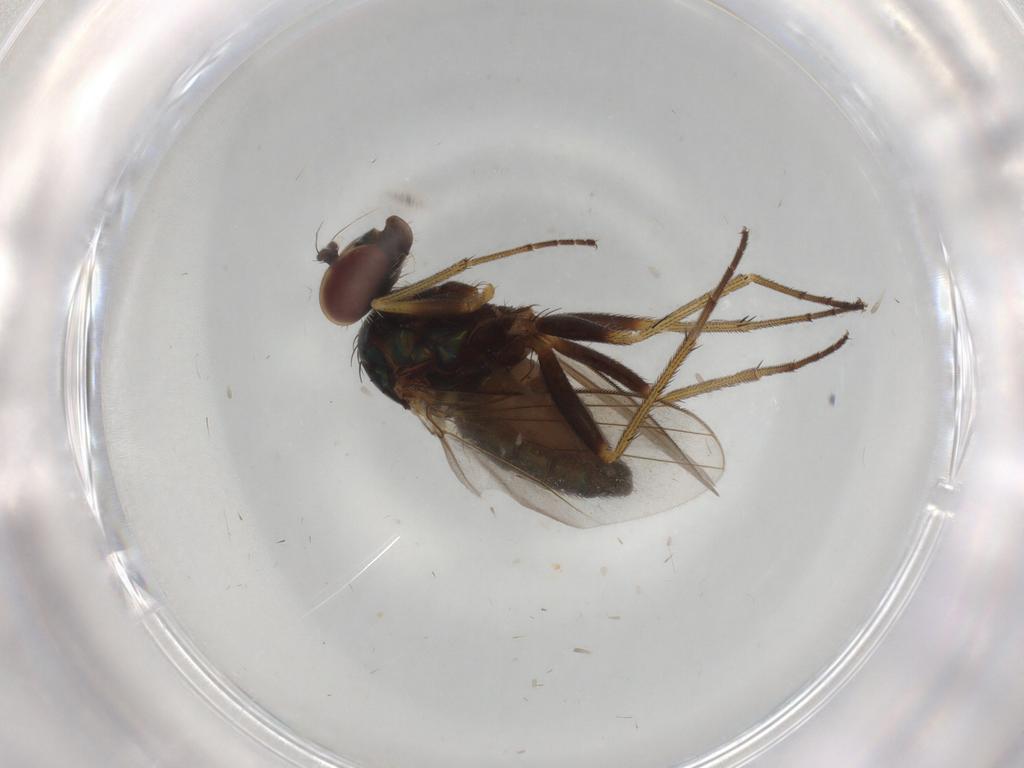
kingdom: Animalia
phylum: Arthropoda
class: Insecta
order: Diptera
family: Dolichopodidae
